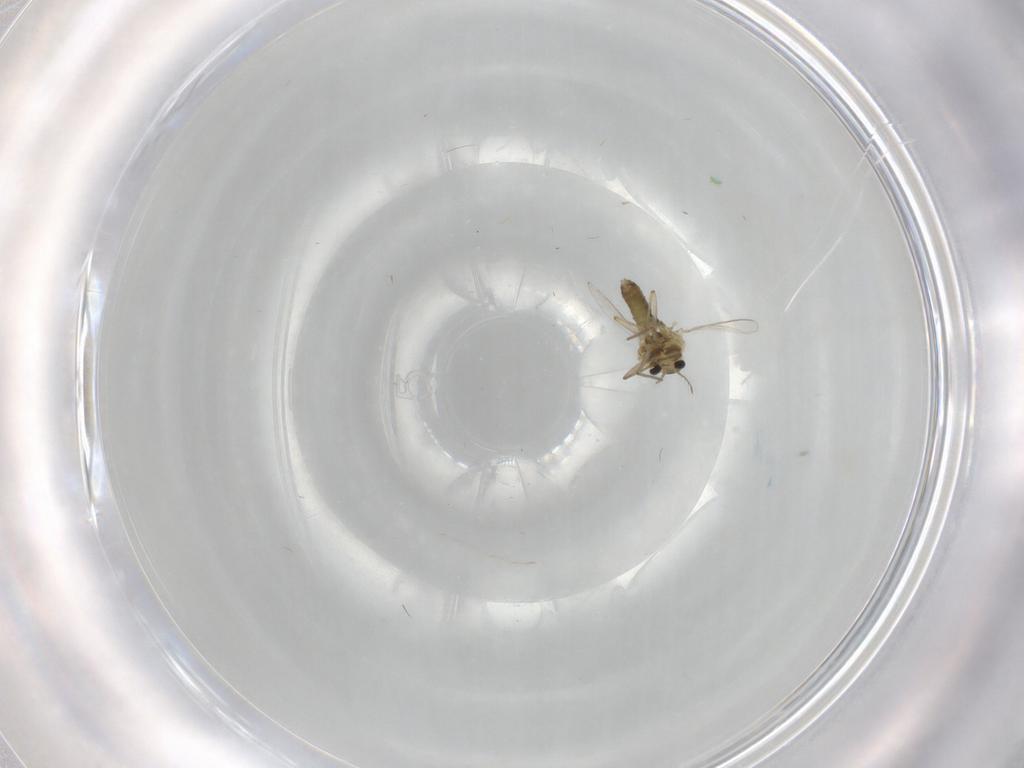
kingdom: Animalia
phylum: Arthropoda
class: Insecta
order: Diptera
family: Chironomidae
